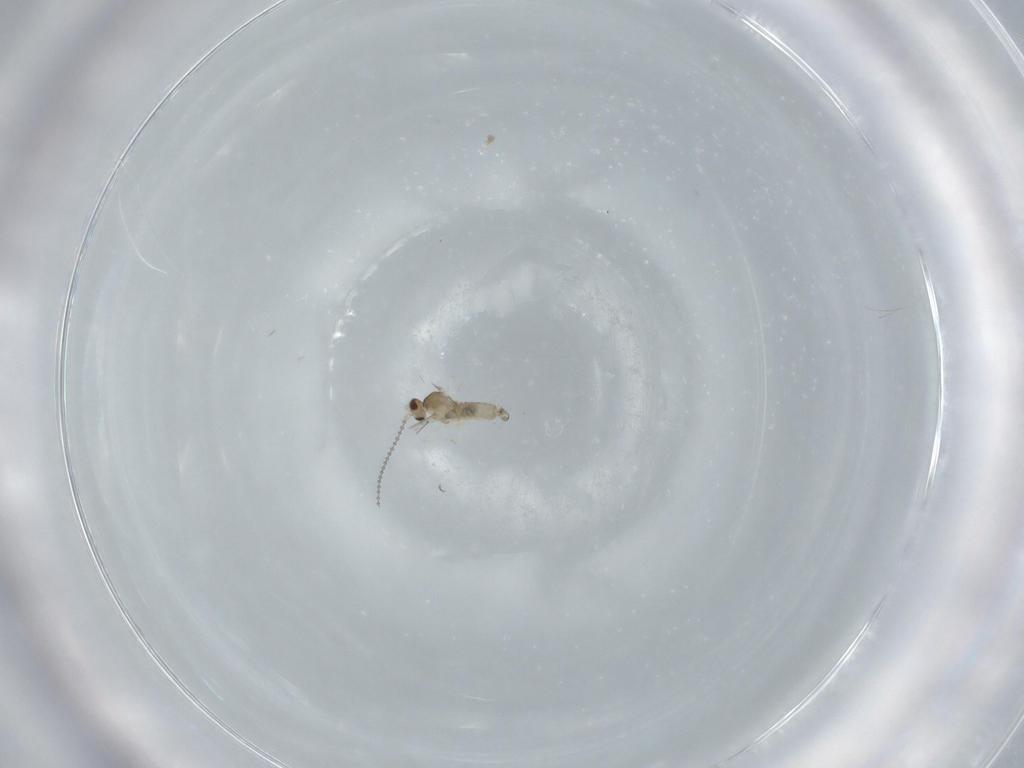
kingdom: Animalia
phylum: Arthropoda
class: Insecta
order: Diptera
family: Cecidomyiidae
